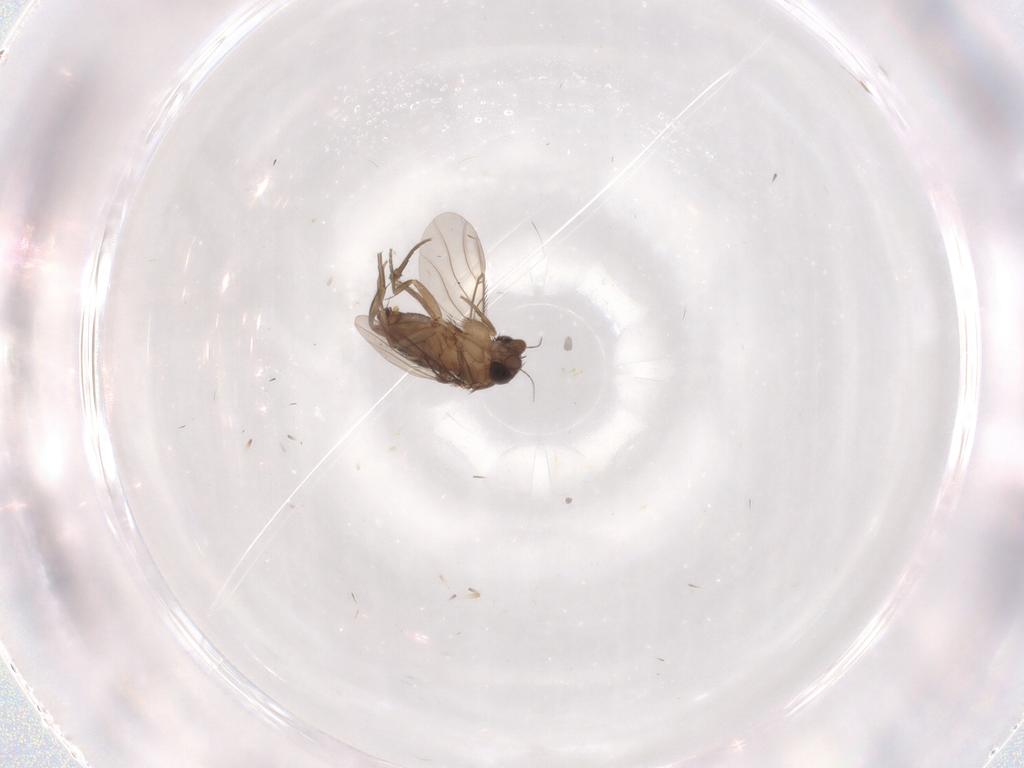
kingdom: Animalia
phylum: Arthropoda
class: Insecta
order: Diptera
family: Phoridae
